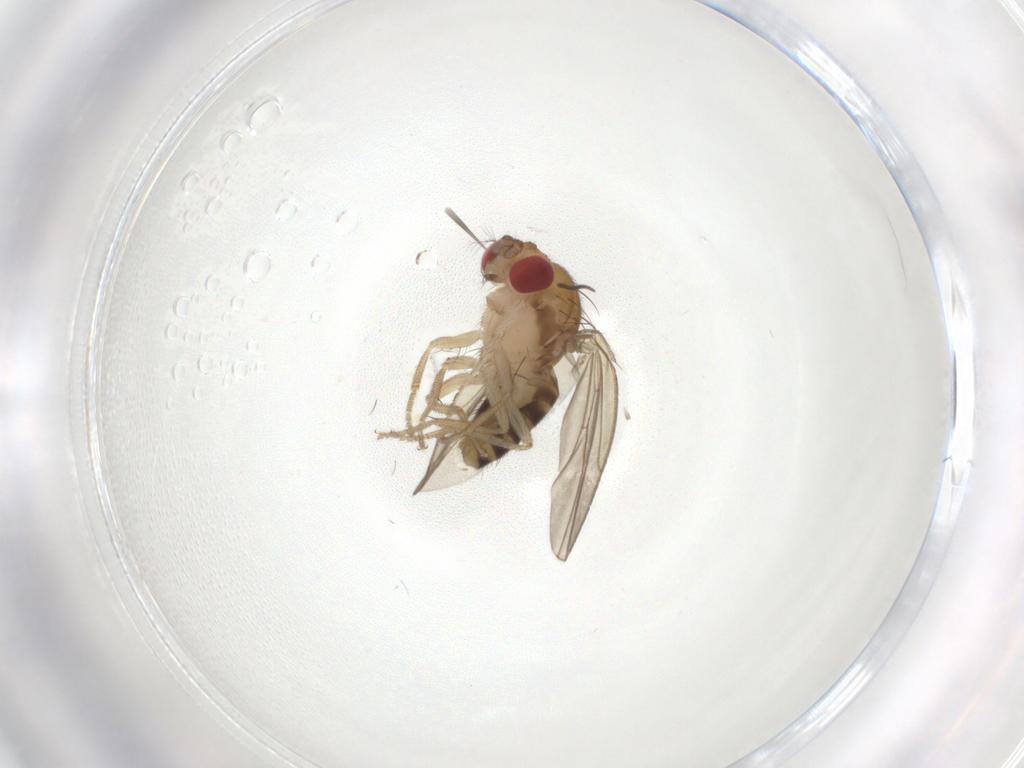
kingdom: Animalia
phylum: Arthropoda
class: Insecta
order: Diptera
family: Drosophilidae
